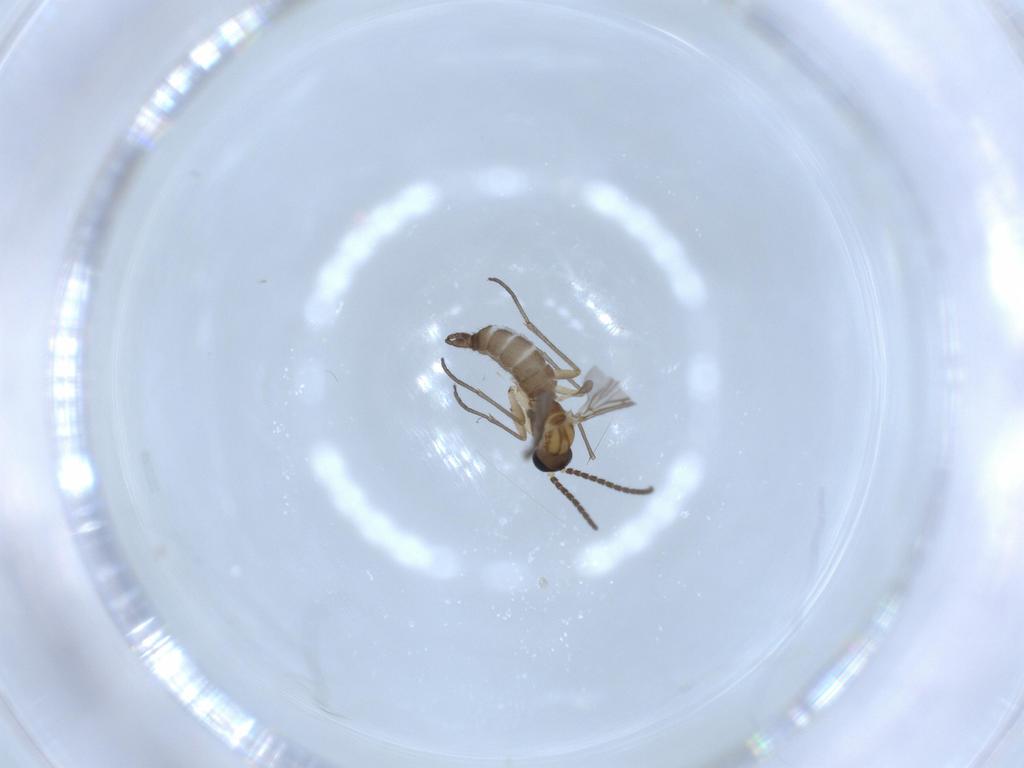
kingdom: Animalia
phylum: Arthropoda
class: Insecta
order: Diptera
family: Sciaridae
